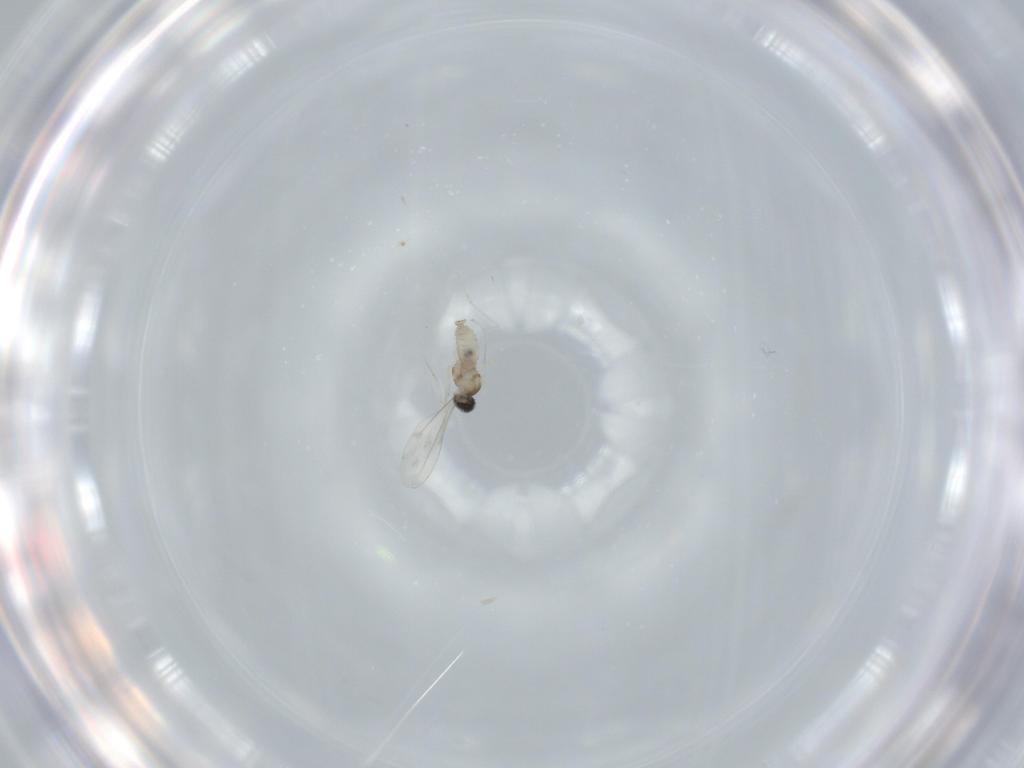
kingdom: Animalia
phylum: Arthropoda
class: Insecta
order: Diptera
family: Cecidomyiidae
